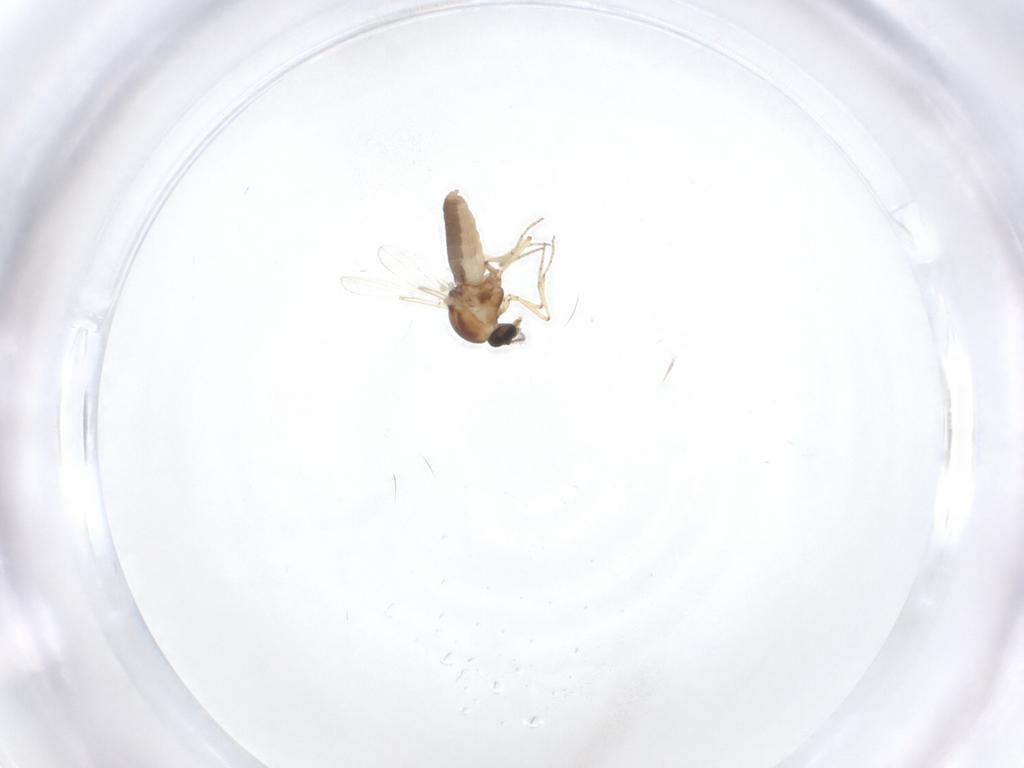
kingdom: Animalia
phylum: Arthropoda
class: Insecta
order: Diptera
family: Ceratopogonidae
